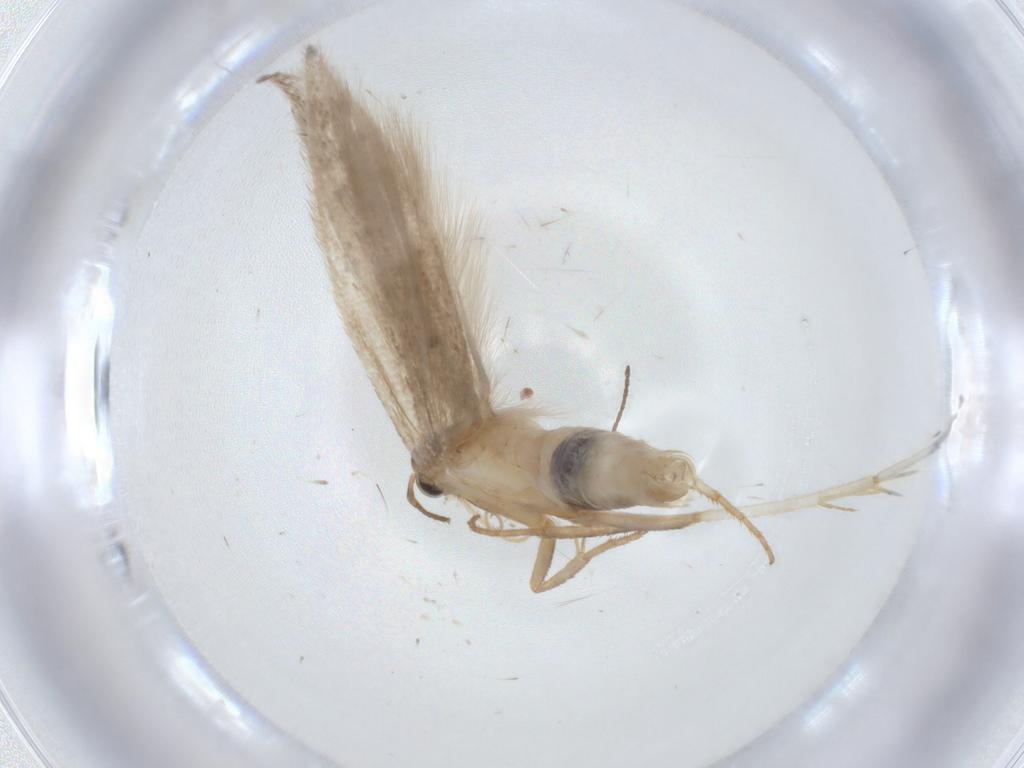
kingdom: Animalia
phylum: Arthropoda
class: Insecta
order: Lepidoptera
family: Gelechiidae
